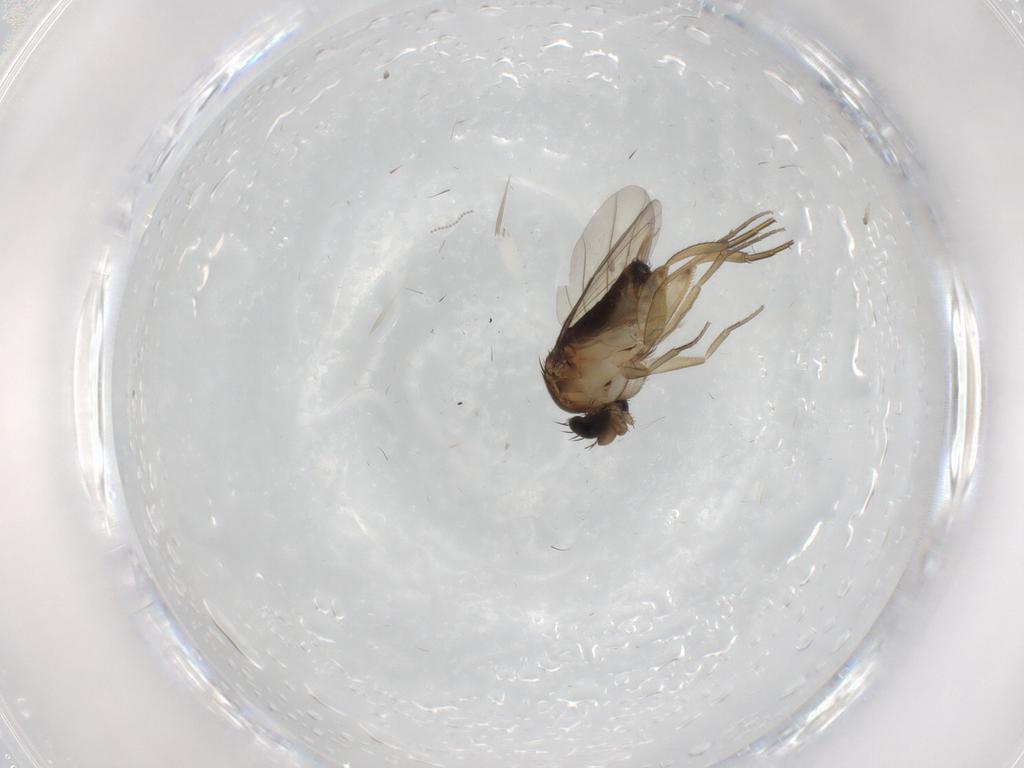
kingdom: Animalia
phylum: Arthropoda
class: Insecta
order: Diptera
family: Phoridae
